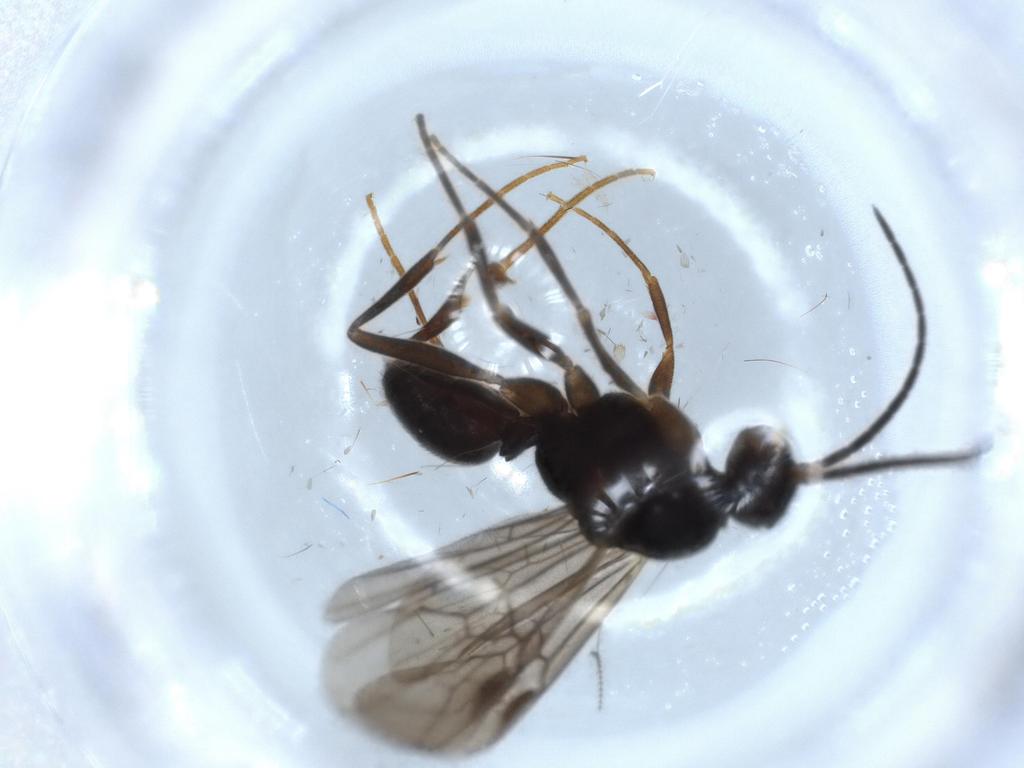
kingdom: Animalia
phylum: Arthropoda
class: Insecta
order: Hymenoptera
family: Formicidae
